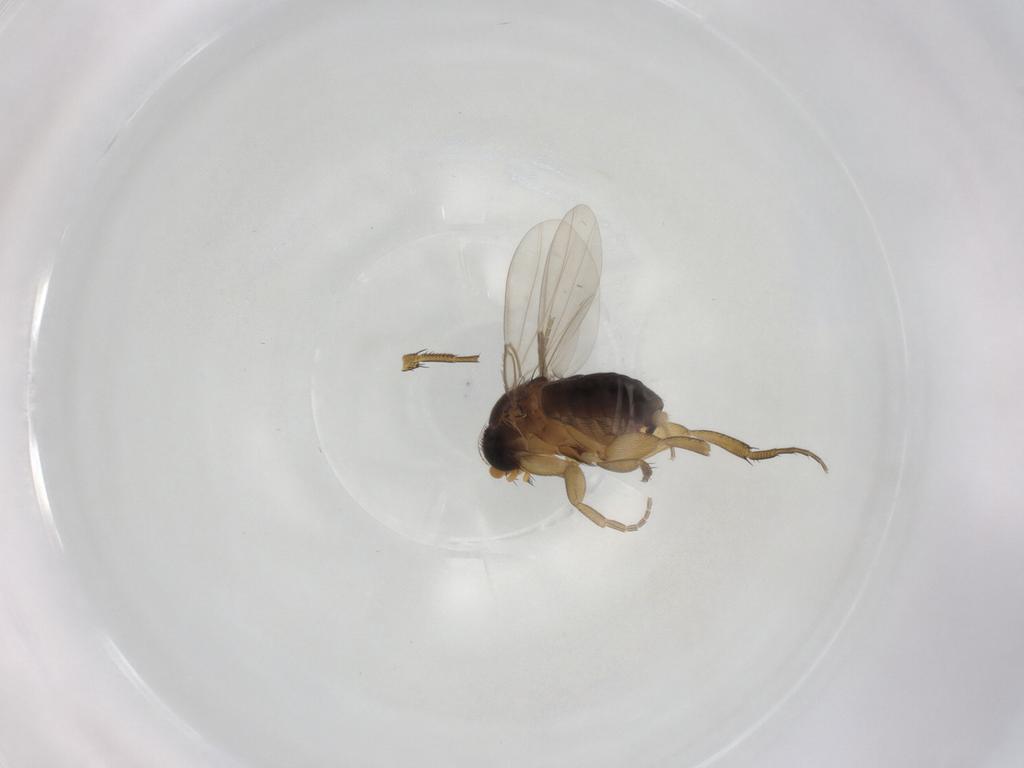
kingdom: Animalia
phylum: Arthropoda
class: Insecta
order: Diptera
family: Phoridae
